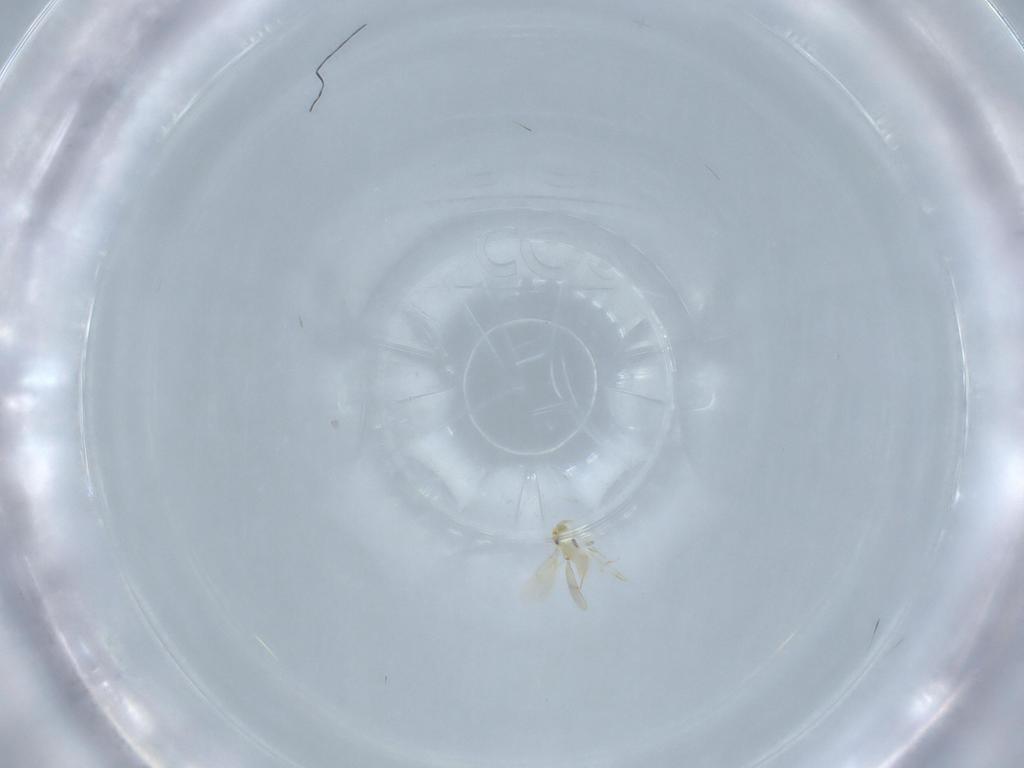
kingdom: Animalia
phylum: Arthropoda
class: Insecta
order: Hymenoptera
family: Aphelinidae
